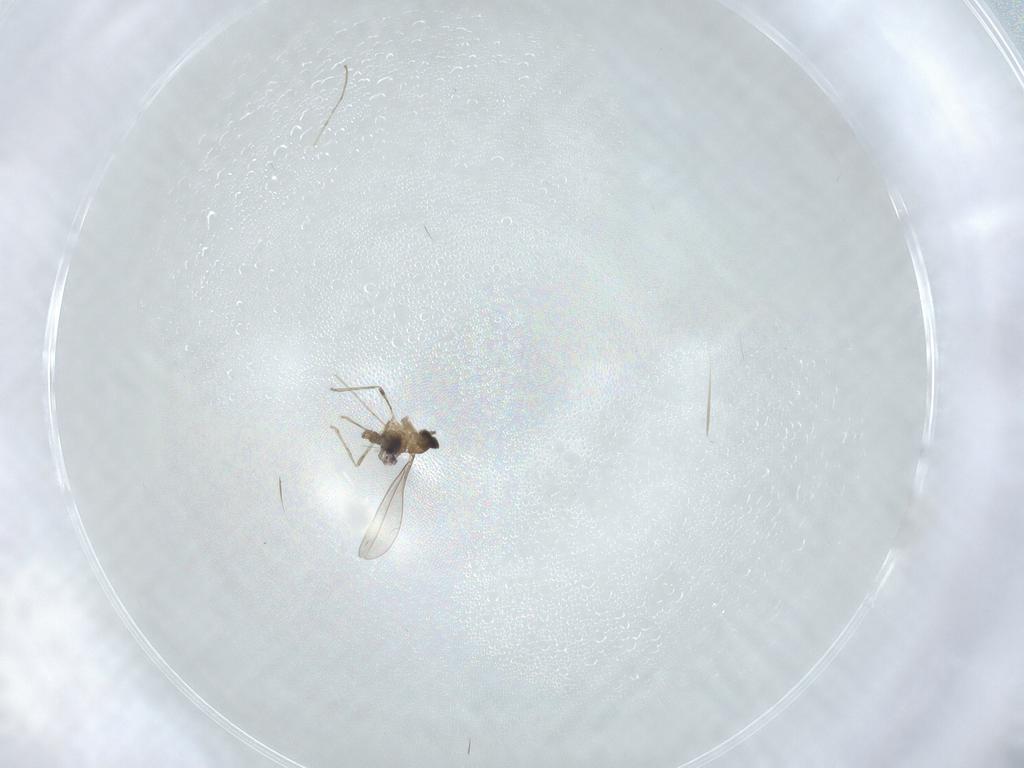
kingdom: Animalia
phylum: Arthropoda
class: Insecta
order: Diptera
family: Cecidomyiidae
